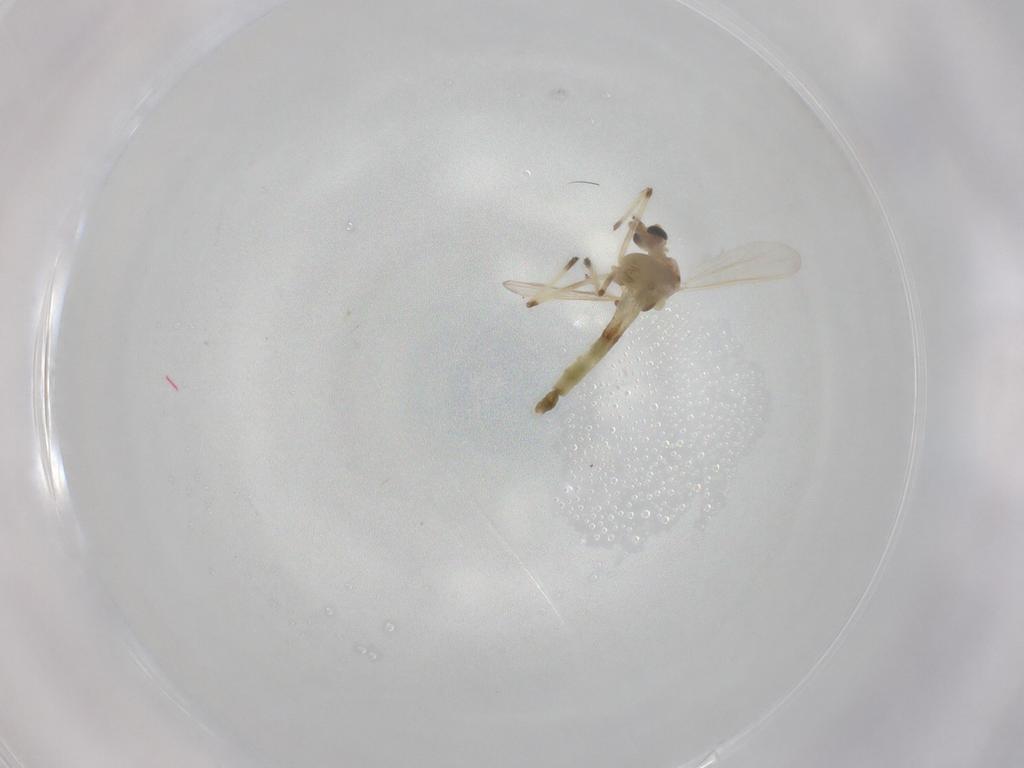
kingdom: Animalia
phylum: Arthropoda
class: Insecta
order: Diptera
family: Chironomidae
